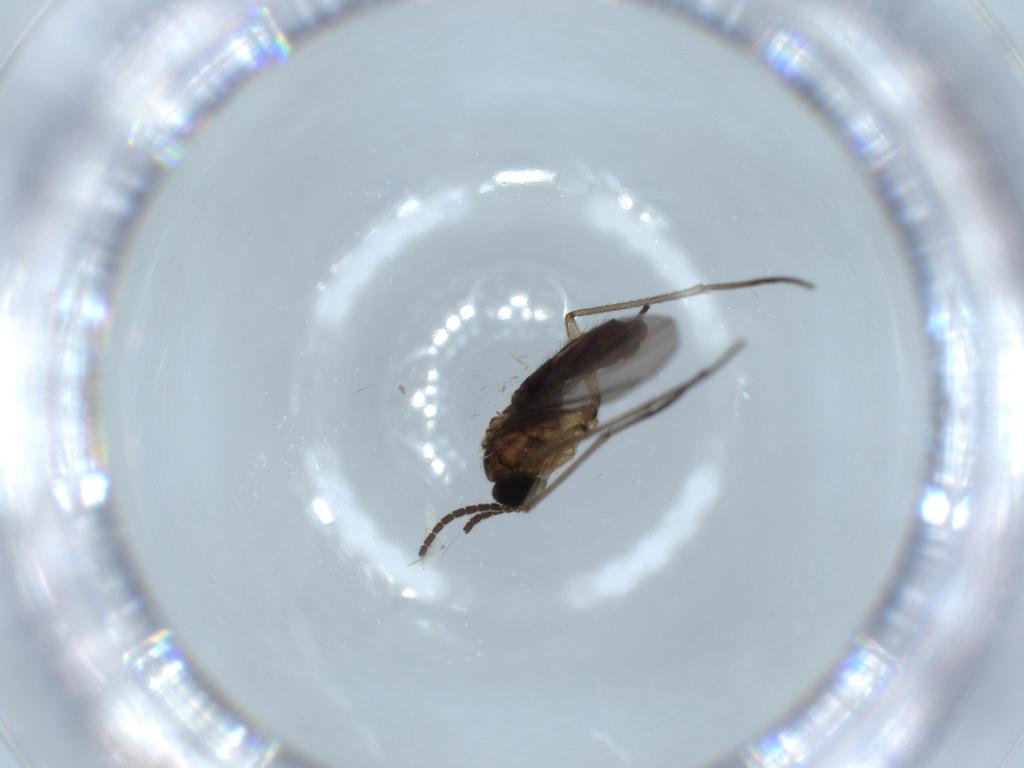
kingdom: Animalia
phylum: Arthropoda
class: Insecta
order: Diptera
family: Sciaridae
